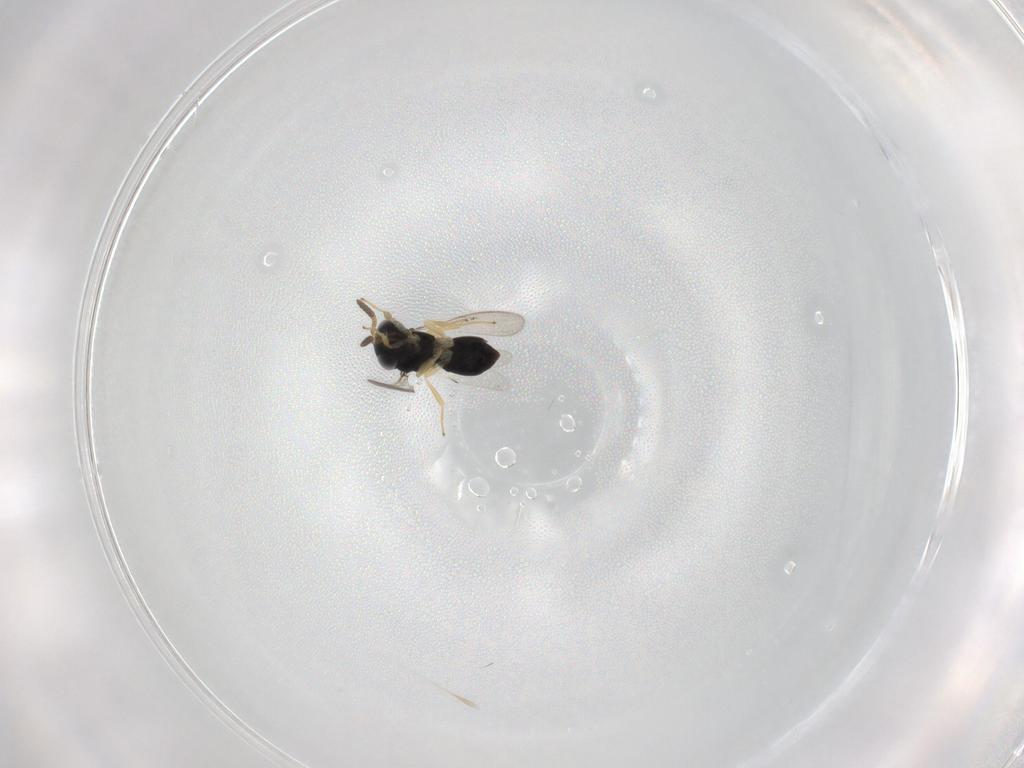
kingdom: Animalia
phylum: Arthropoda
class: Insecta
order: Hymenoptera
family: Scelionidae
